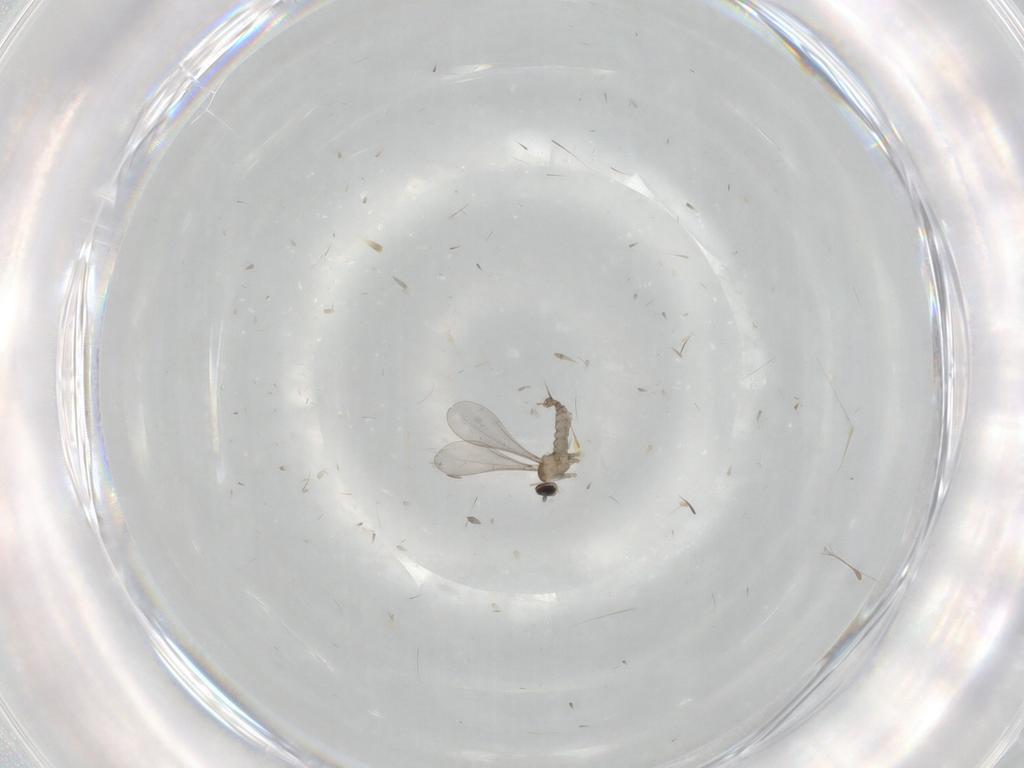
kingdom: Animalia
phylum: Arthropoda
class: Insecta
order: Diptera
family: Cecidomyiidae
